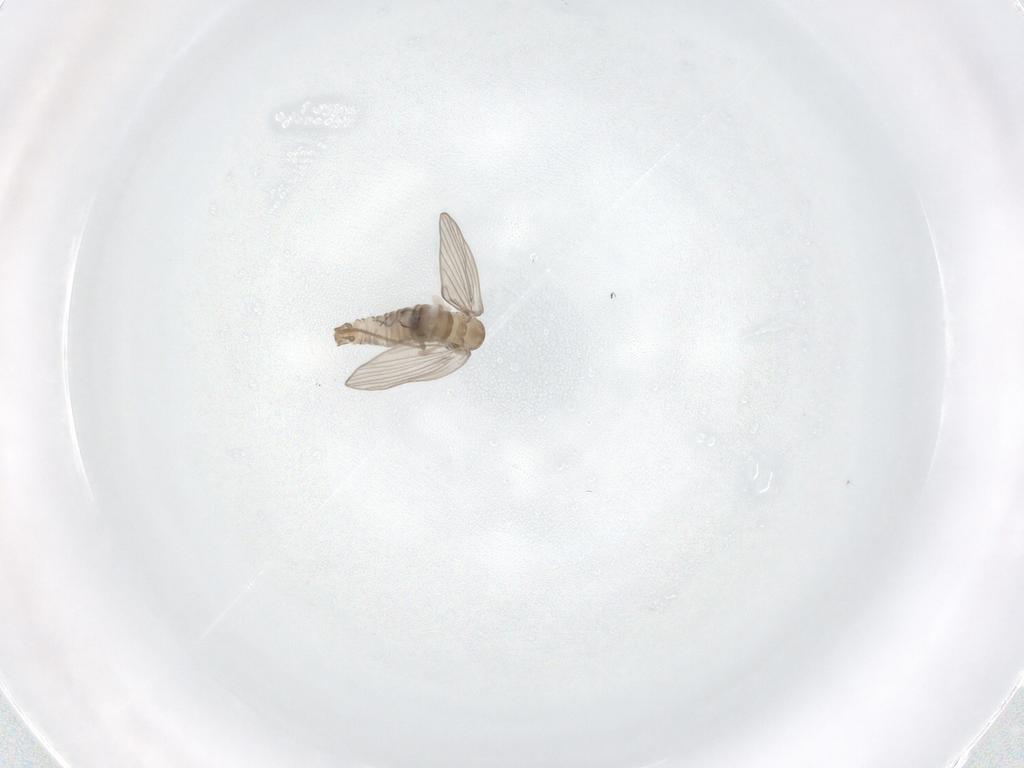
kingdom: Animalia
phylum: Arthropoda
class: Insecta
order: Diptera
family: Psychodidae
